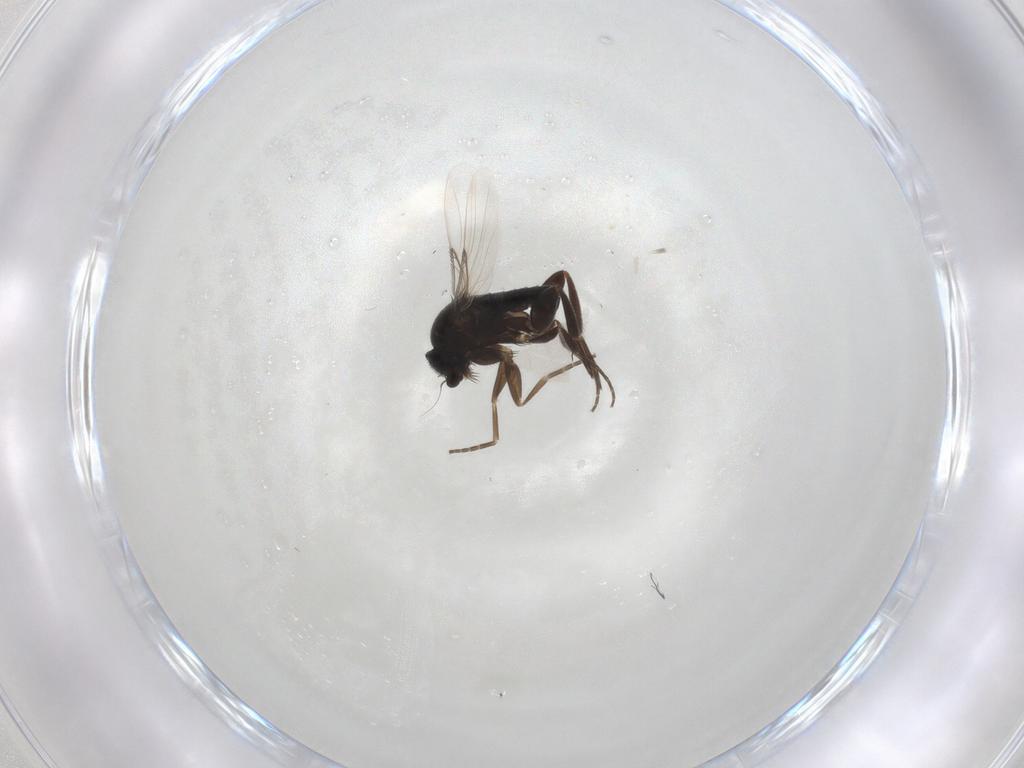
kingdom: Animalia
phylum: Arthropoda
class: Insecta
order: Diptera
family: Phoridae
